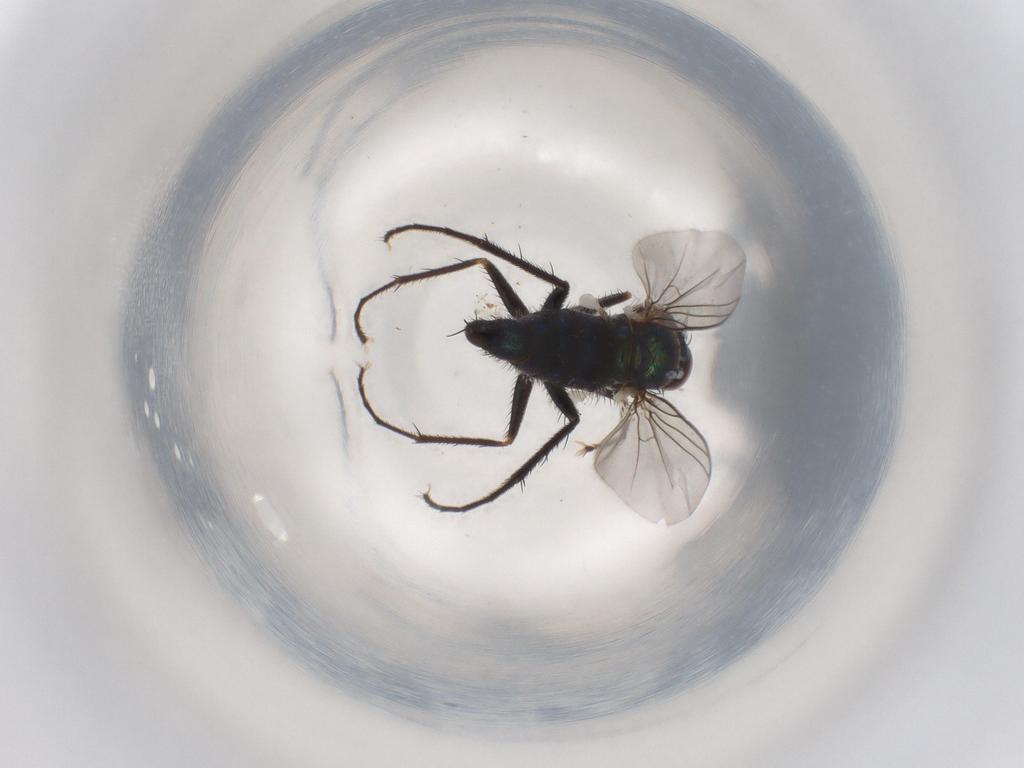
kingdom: Animalia
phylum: Arthropoda
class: Insecta
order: Diptera
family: Dolichopodidae
